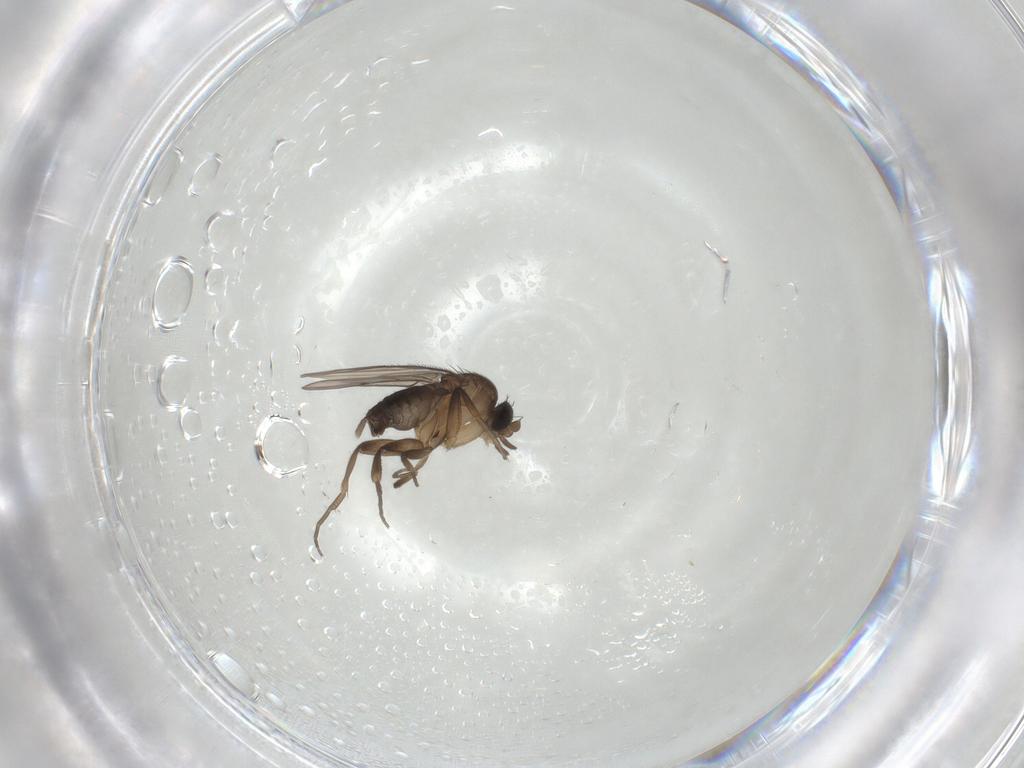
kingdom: Animalia
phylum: Arthropoda
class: Insecta
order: Diptera
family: Phoridae
